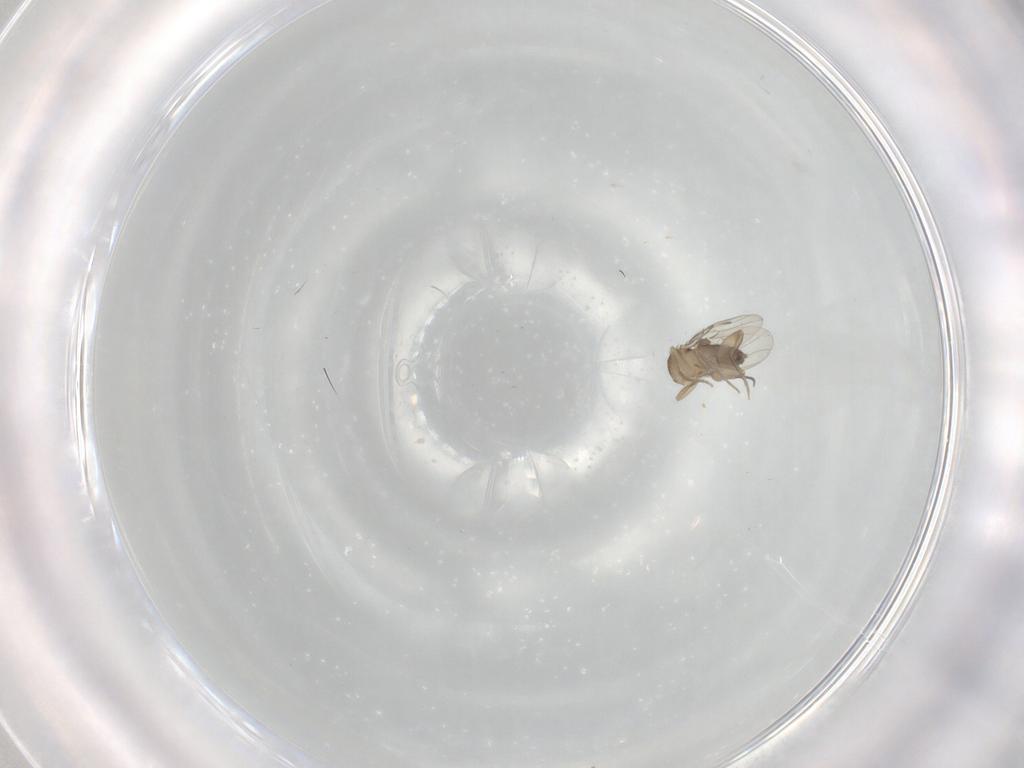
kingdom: Animalia
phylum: Arthropoda
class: Insecta
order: Diptera
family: Phoridae
